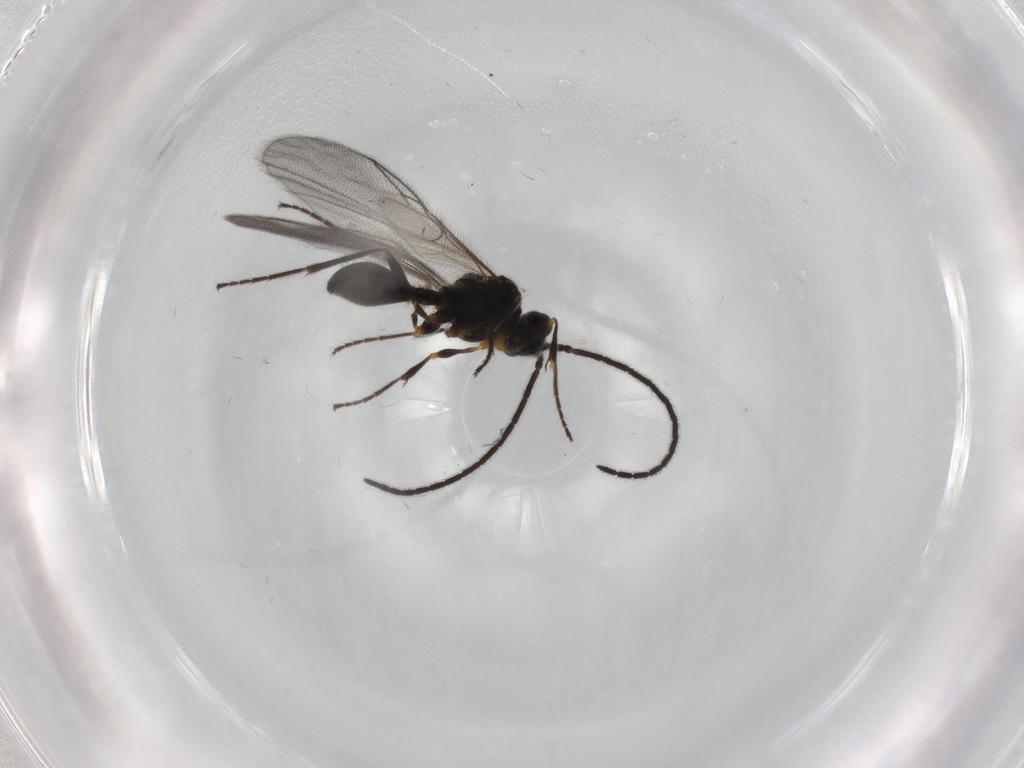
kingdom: Animalia
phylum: Arthropoda
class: Insecta
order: Hymenoptera
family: Diapriidae
